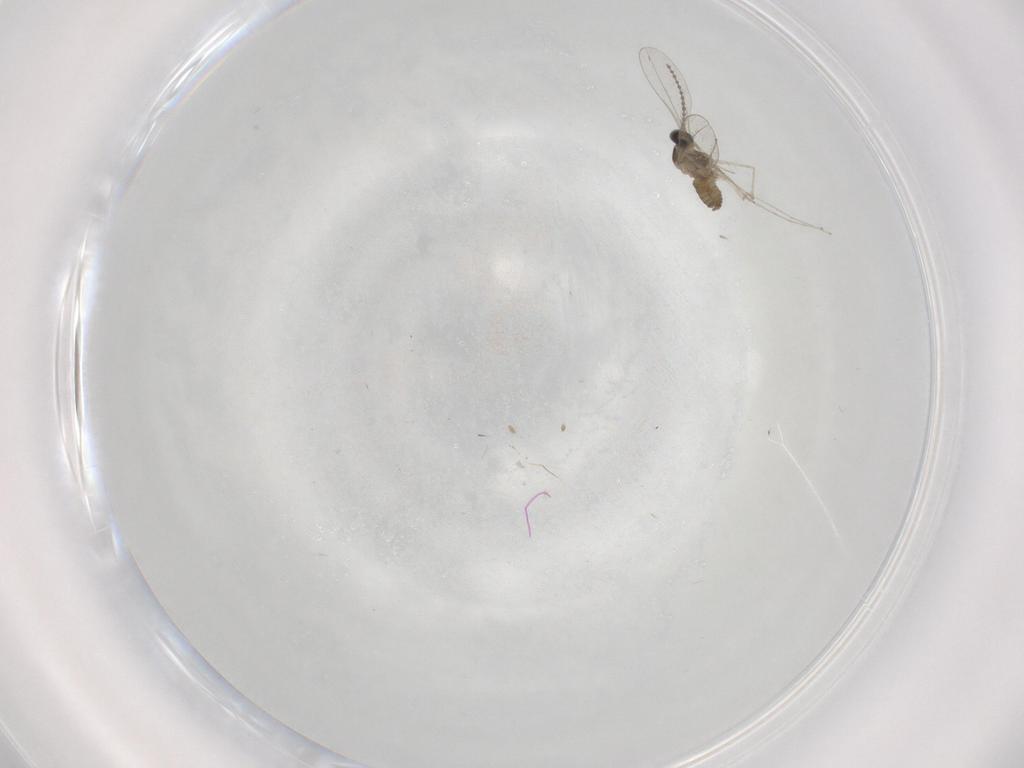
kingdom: Animalia
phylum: Arthropoda
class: Insecta
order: Diptera
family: Cecidomyiidae
